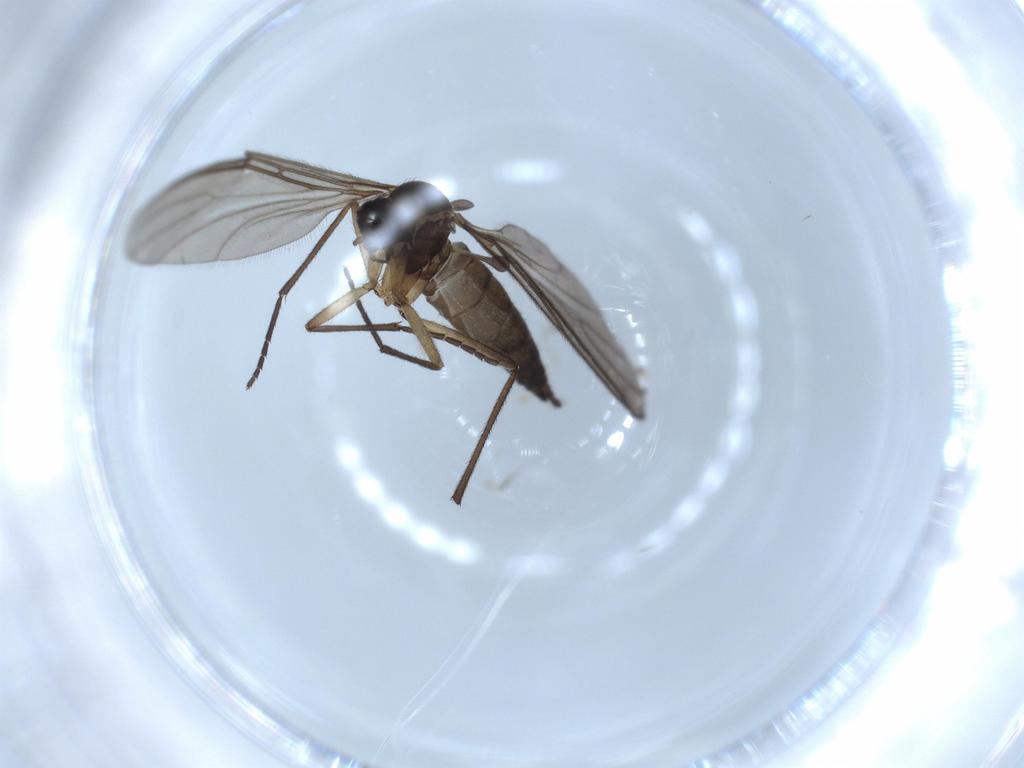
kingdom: Animalia
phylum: Arthropoda
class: Insecta
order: Diptera
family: Sciaridae
